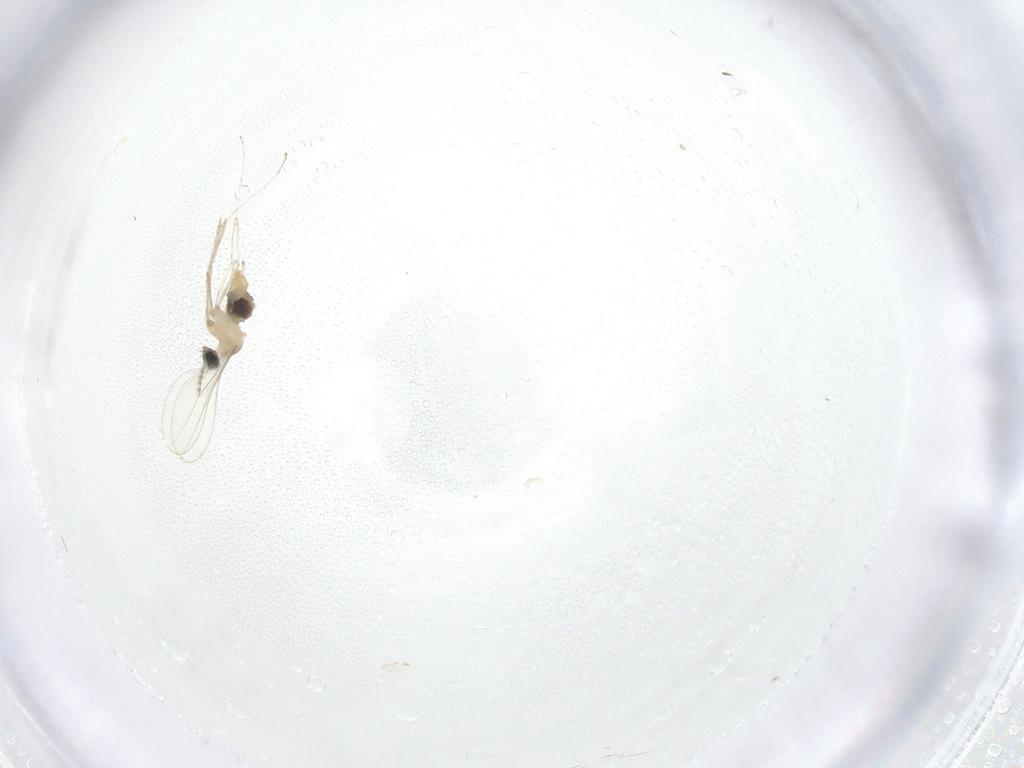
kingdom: Animalia
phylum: Arthropoda
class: Insecta
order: Diptera
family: Cecidomyiidae
